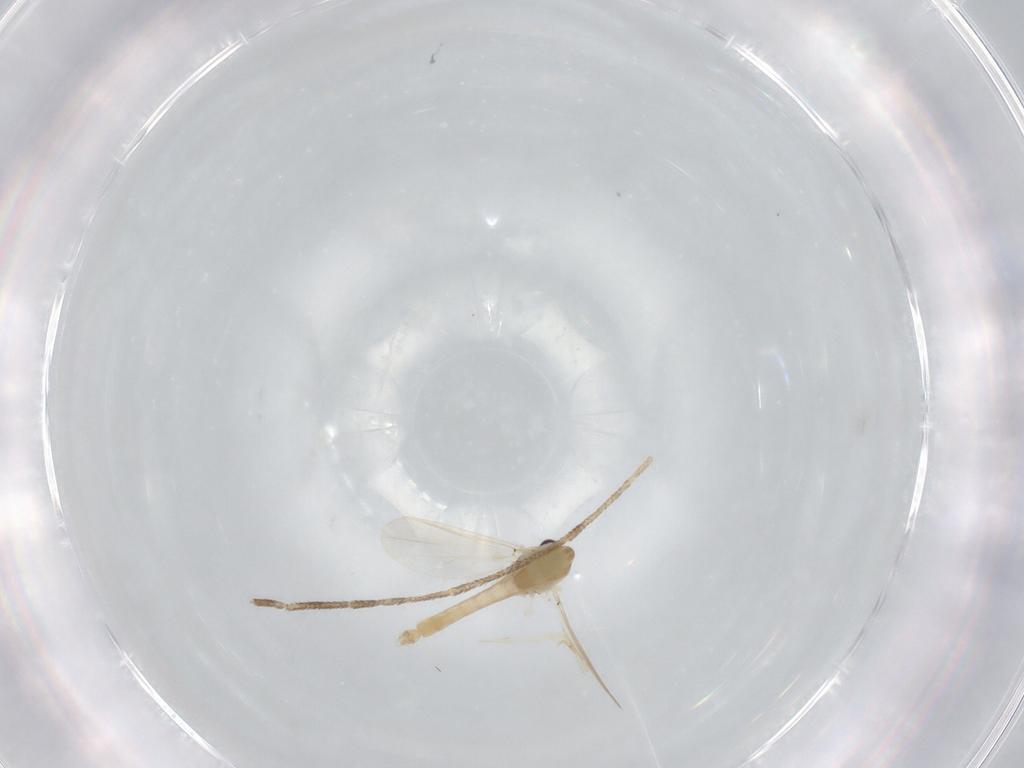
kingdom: Animalia
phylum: Arthropoda
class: Insecta
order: Diptera
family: Chironomidae
